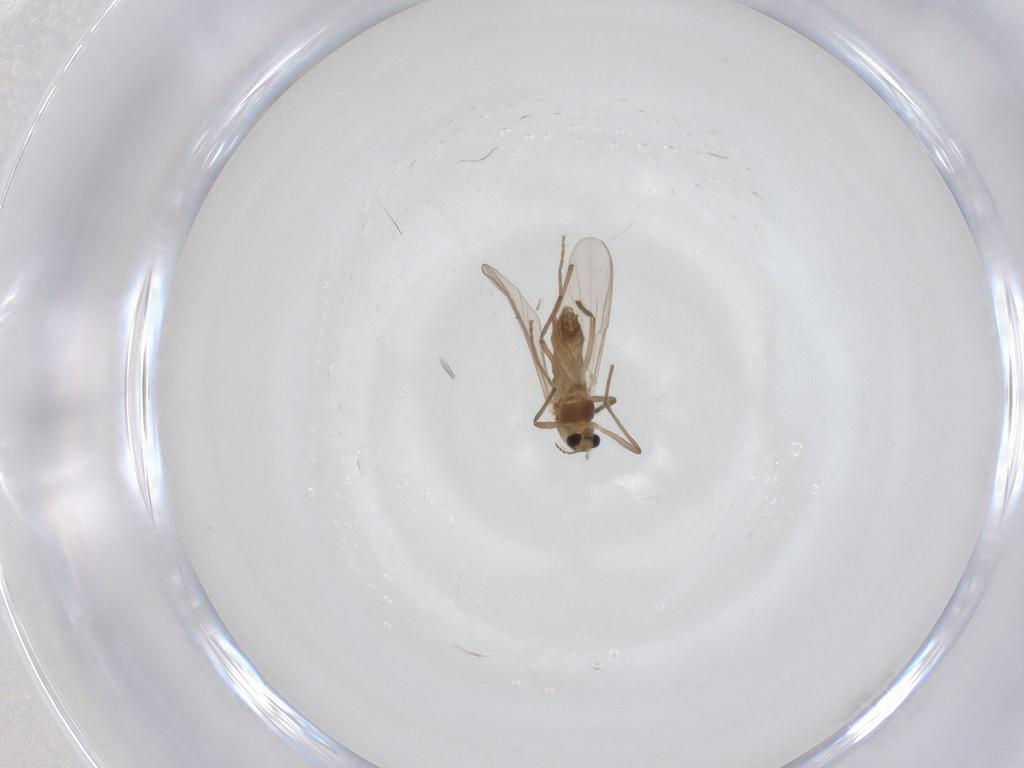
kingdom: Animalia
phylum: Arthropoda
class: Insecta
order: Diptera
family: Chironomidae
